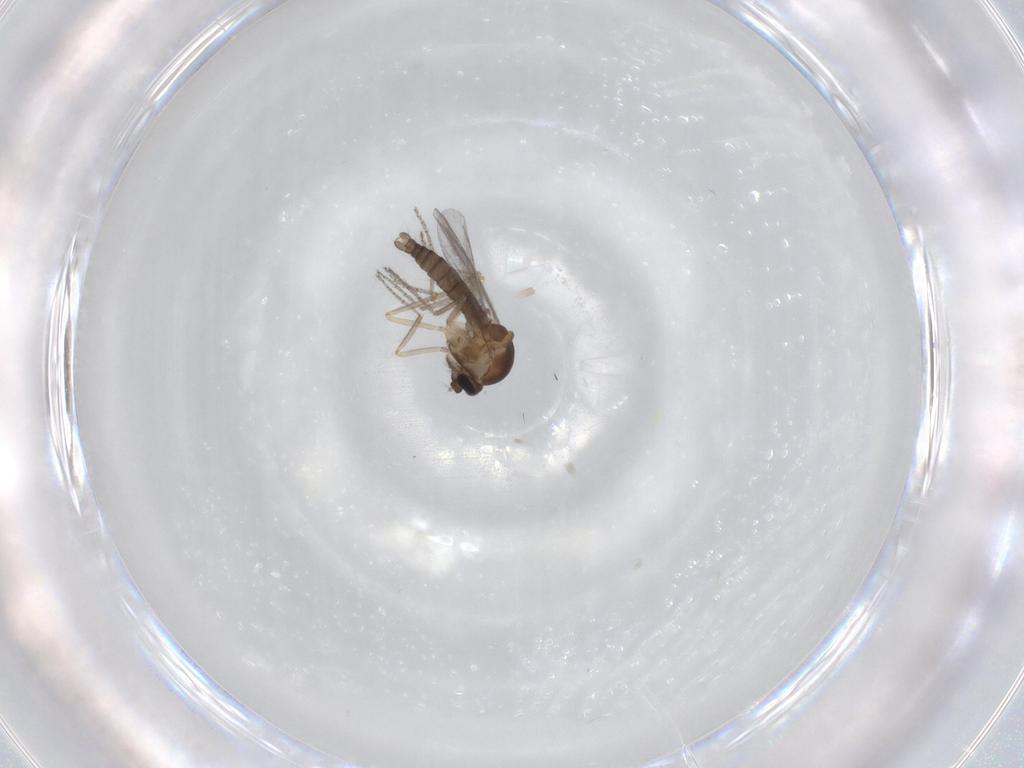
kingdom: Animalia
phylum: Arthropoda
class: Insecta
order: Diptera
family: Ceratopogonidae
